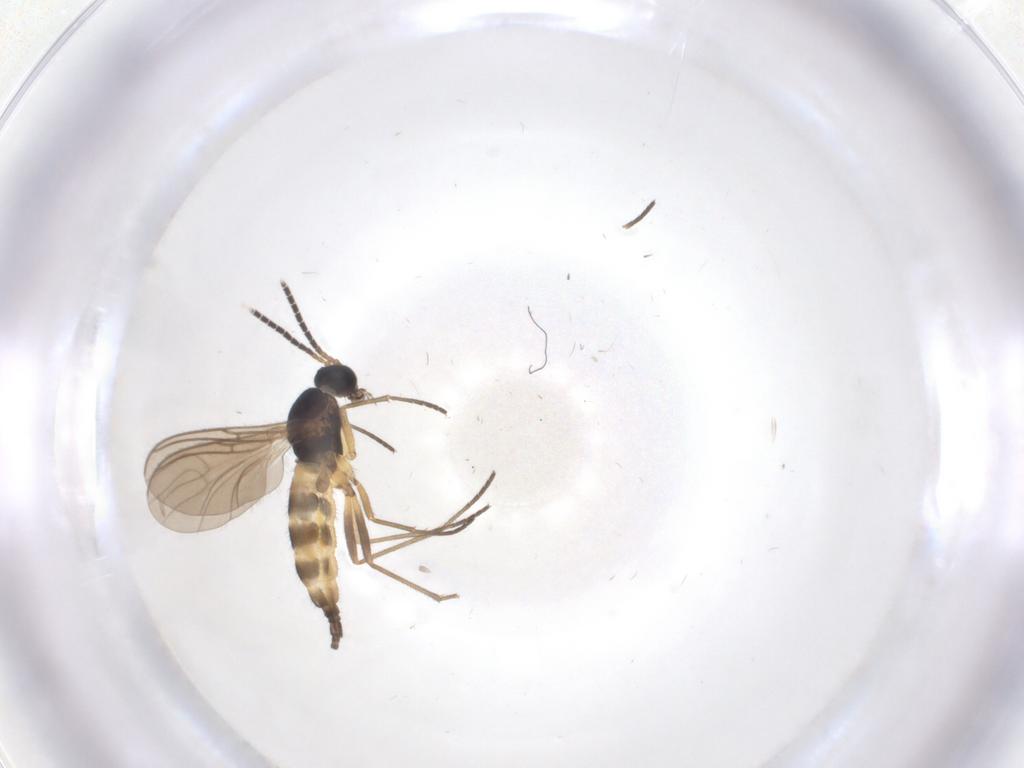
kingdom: Animalia
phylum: Arthropoda
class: Insecta
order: Diptera
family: Sciaridae
